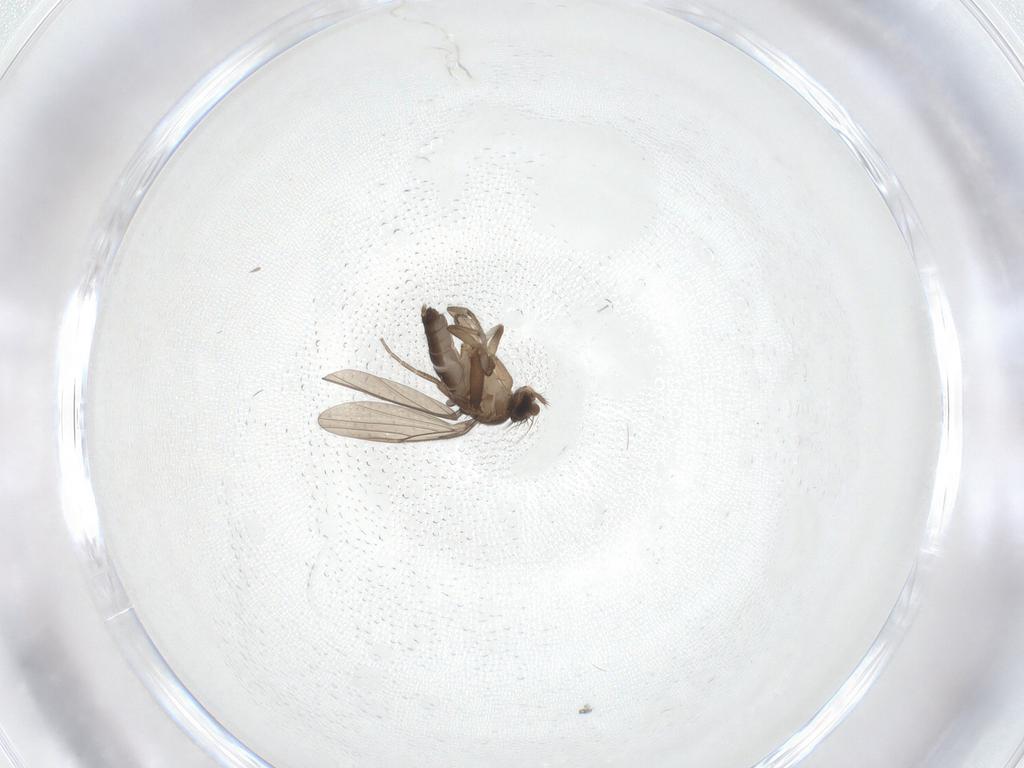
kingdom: Animalia
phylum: Arthropoda
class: Insecta
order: Diptera
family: Phoridae
